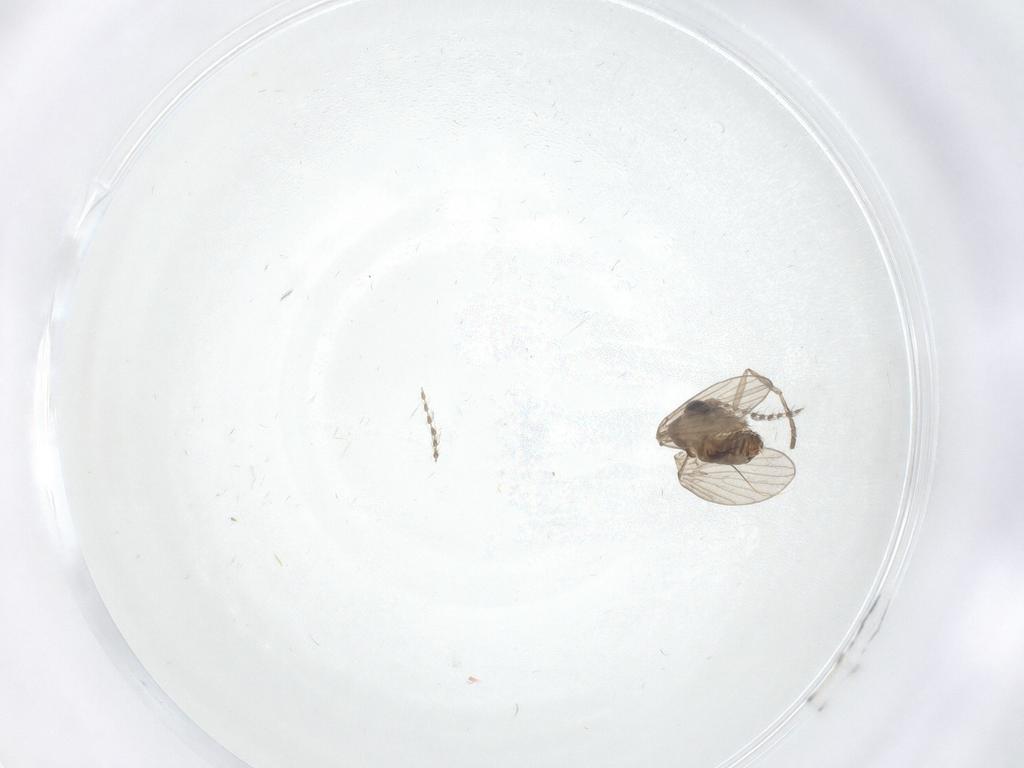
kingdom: Animalia
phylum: Arthropoda
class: Insecta
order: Diptera
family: Psychodidae
